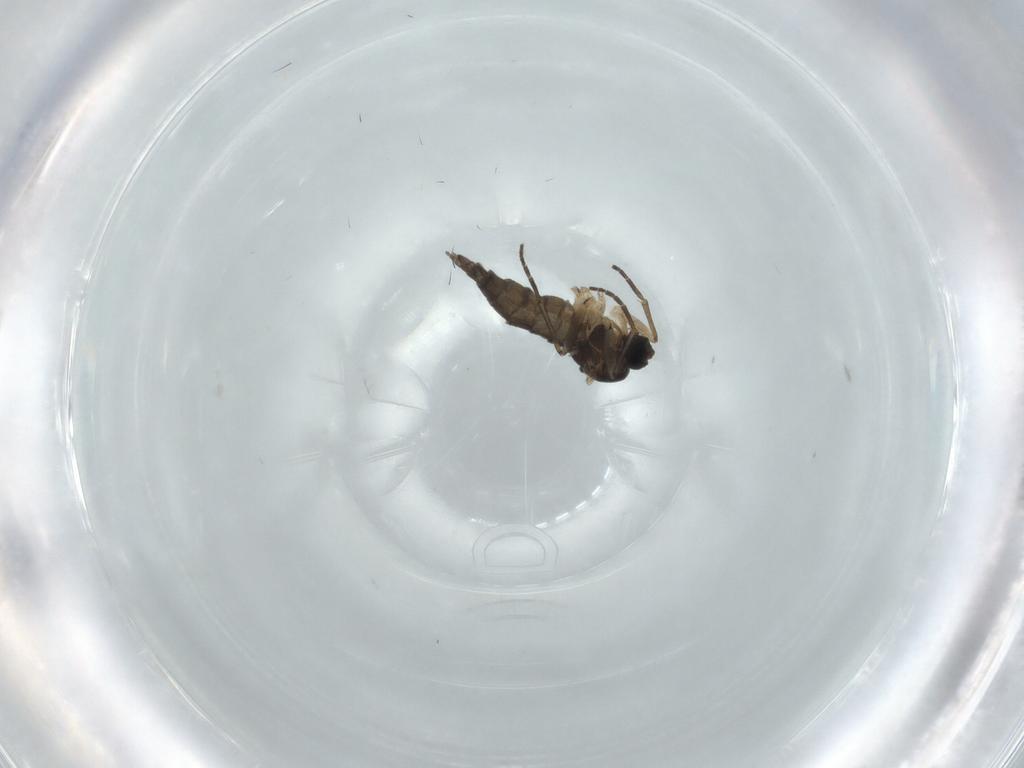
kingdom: Animalia
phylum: Arthropoda
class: Insecta
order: Diptera
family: Sciaridae
